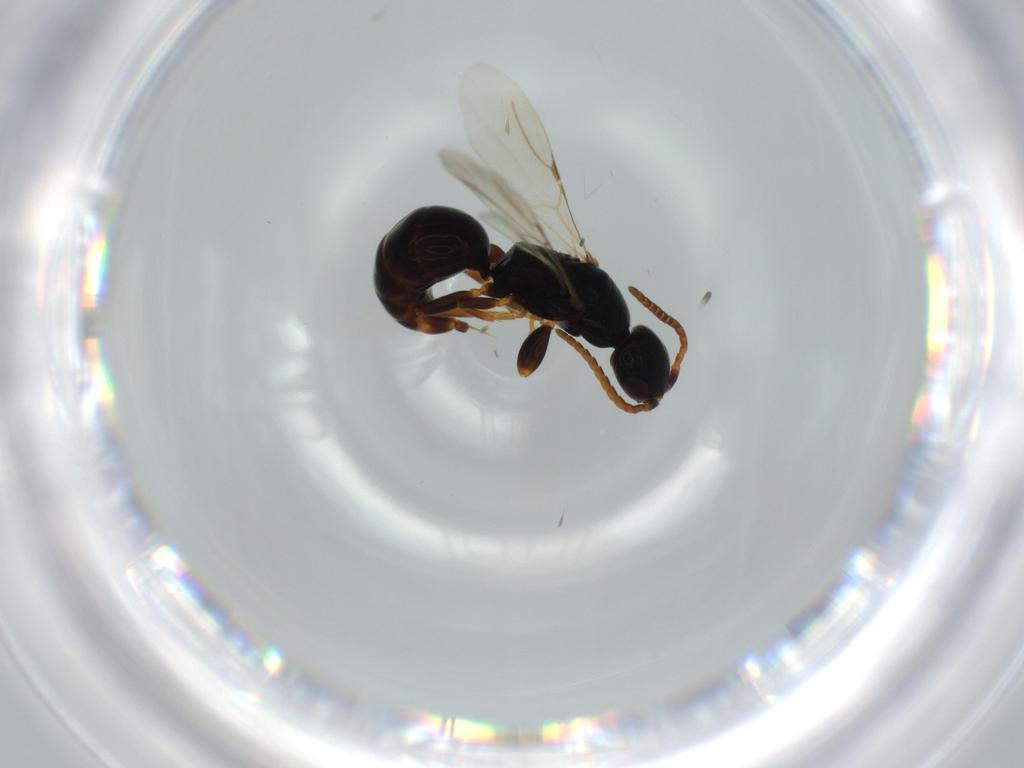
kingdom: Animalia
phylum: Arthropoda
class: Insecta
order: Hymenoptera
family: Bethylidae
